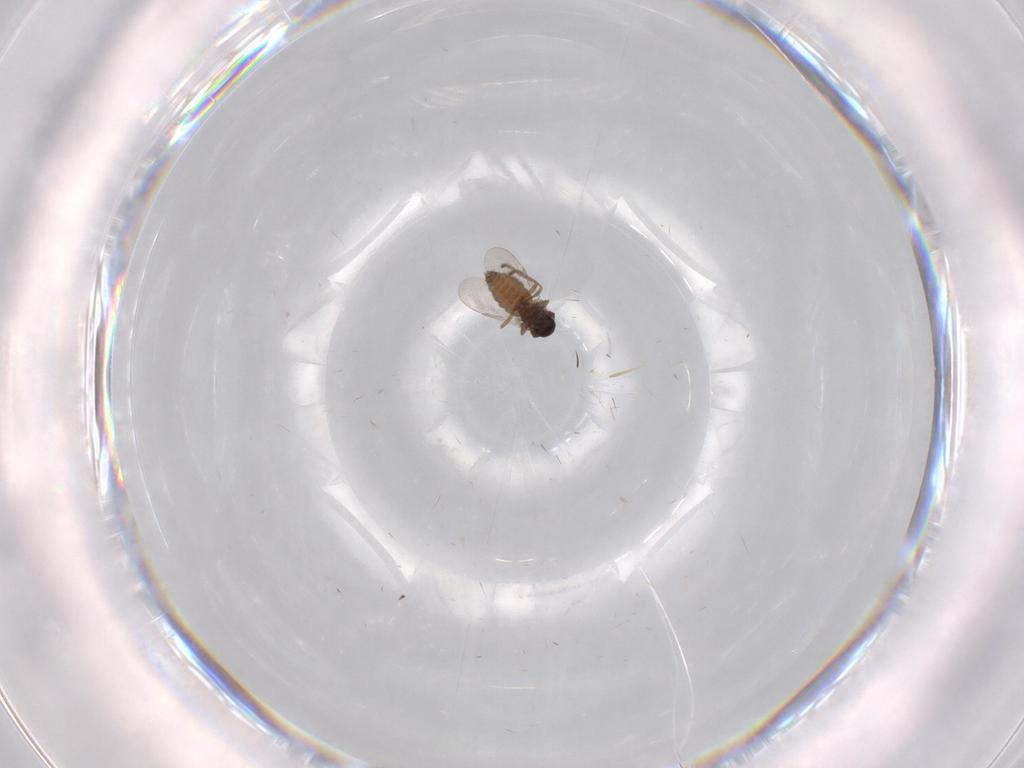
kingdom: Animalia
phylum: Arthropoda
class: Insecta
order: Diptera
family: Ceratopogonidae
